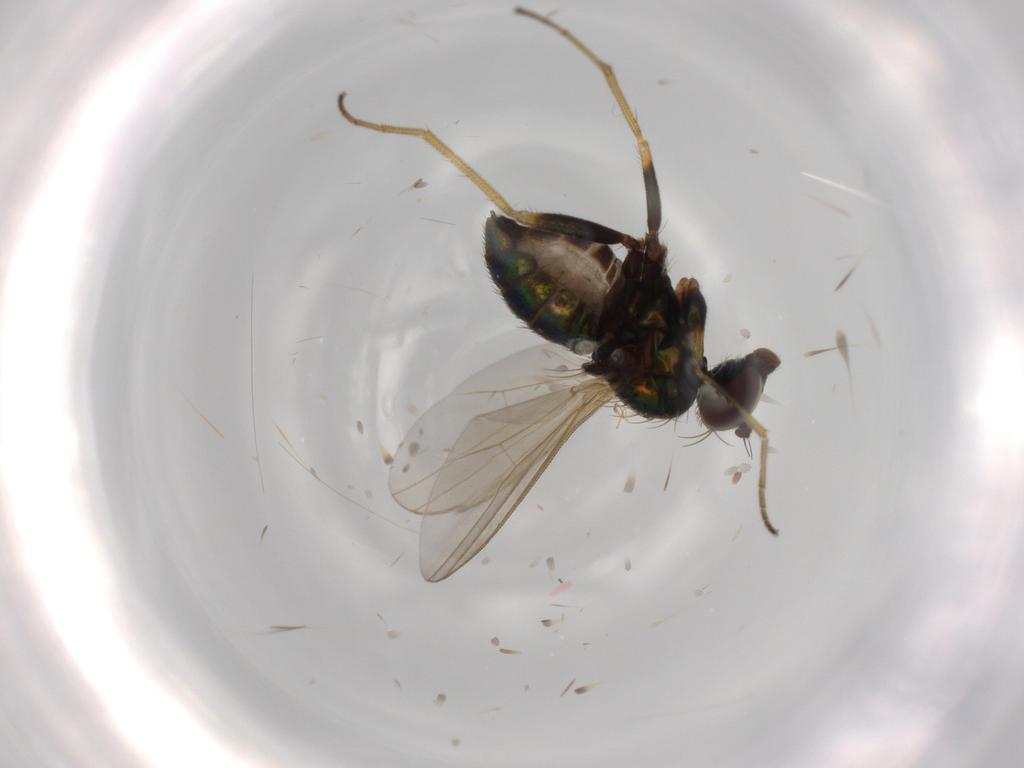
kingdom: Animalia
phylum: Arthropoda
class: Insecta
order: Diptera
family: Dolichopodidae
